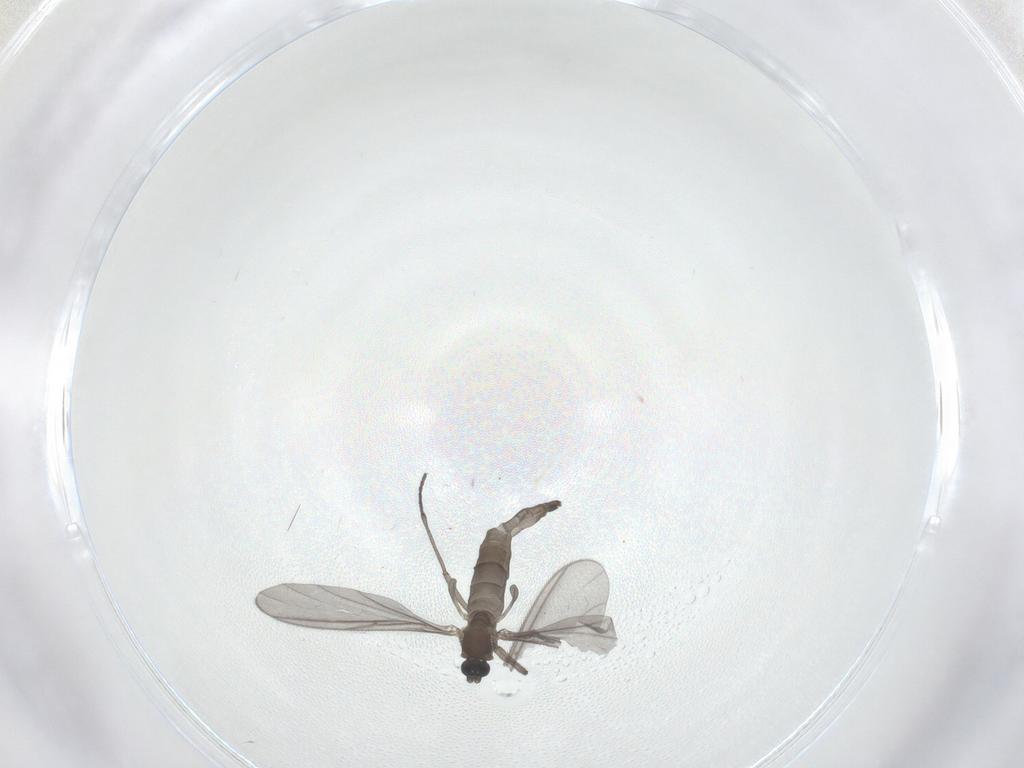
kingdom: Animalia
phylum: Arthropoda
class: Insecta
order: Diptera
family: Sciaridae
